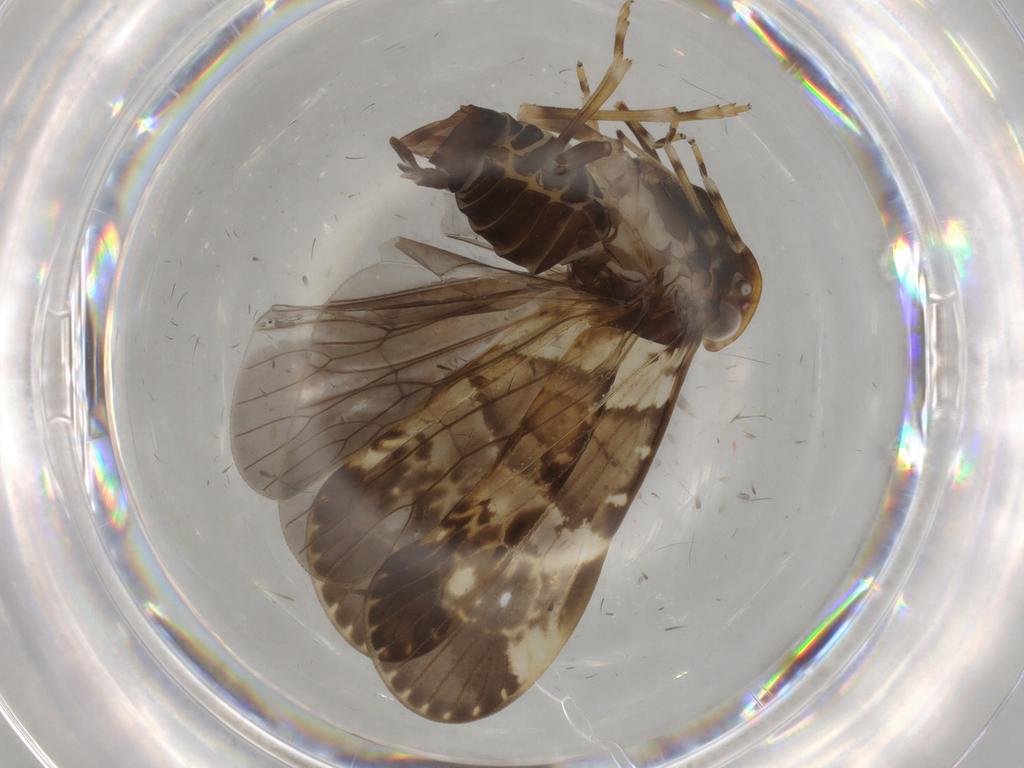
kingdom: Animalia
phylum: Arthropoda
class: Insecta
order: Hemiptera
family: Cixiidae
